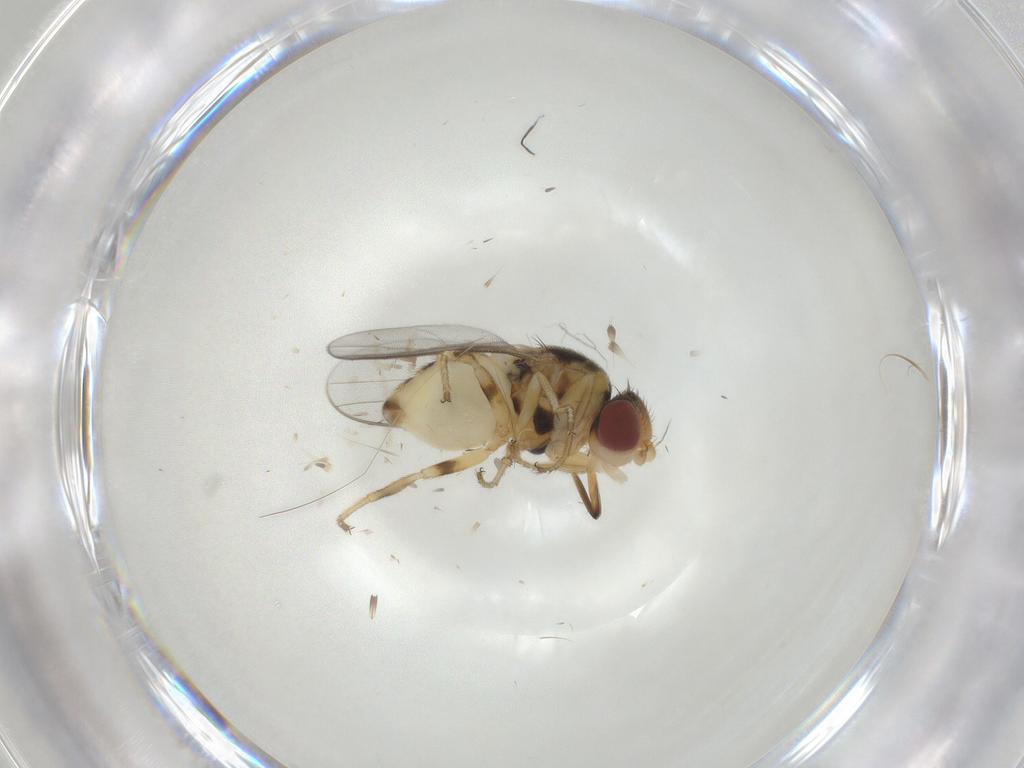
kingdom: Animalia
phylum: Arthropoda
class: Insecta
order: Diptera
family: Chloropidae
